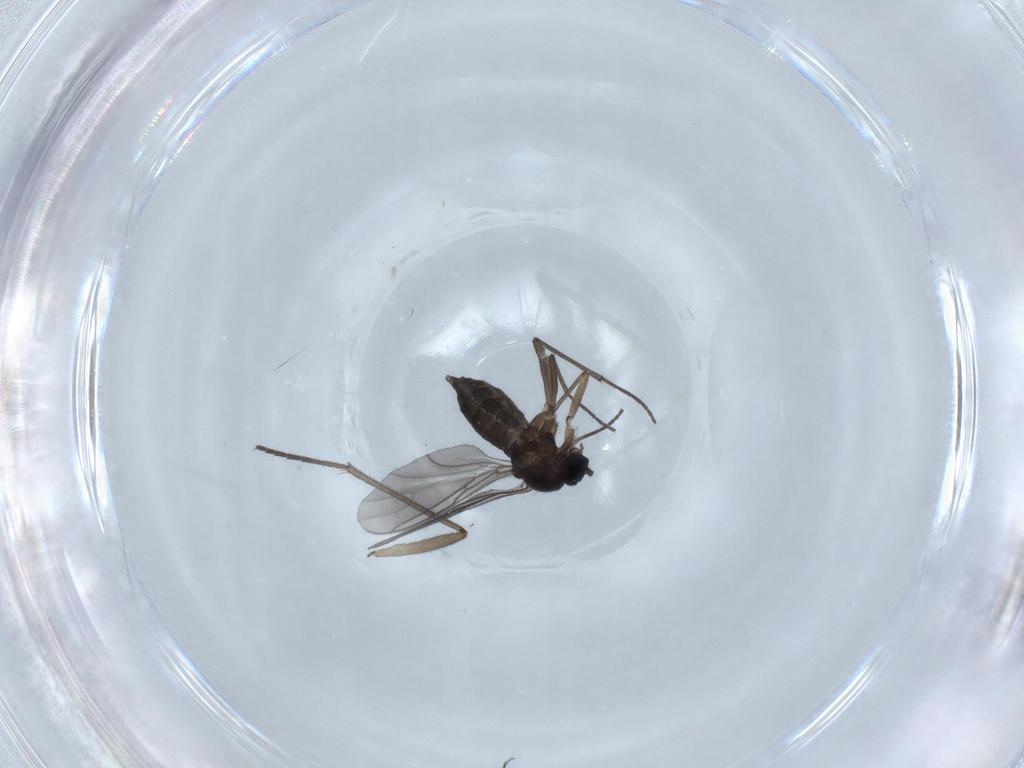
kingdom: Animalia
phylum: Arthropoda
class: Insecta
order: Diptera
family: Sciaridae
